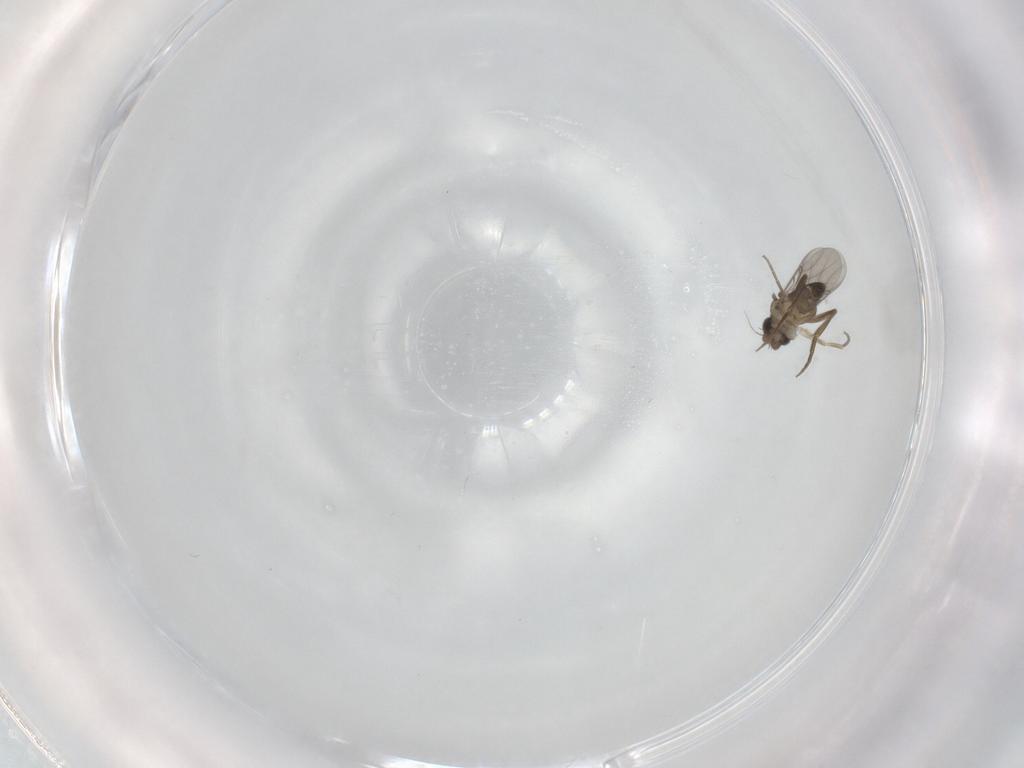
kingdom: Animalia
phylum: Arthropoda
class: Insecta
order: Diptera
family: Phoridae
